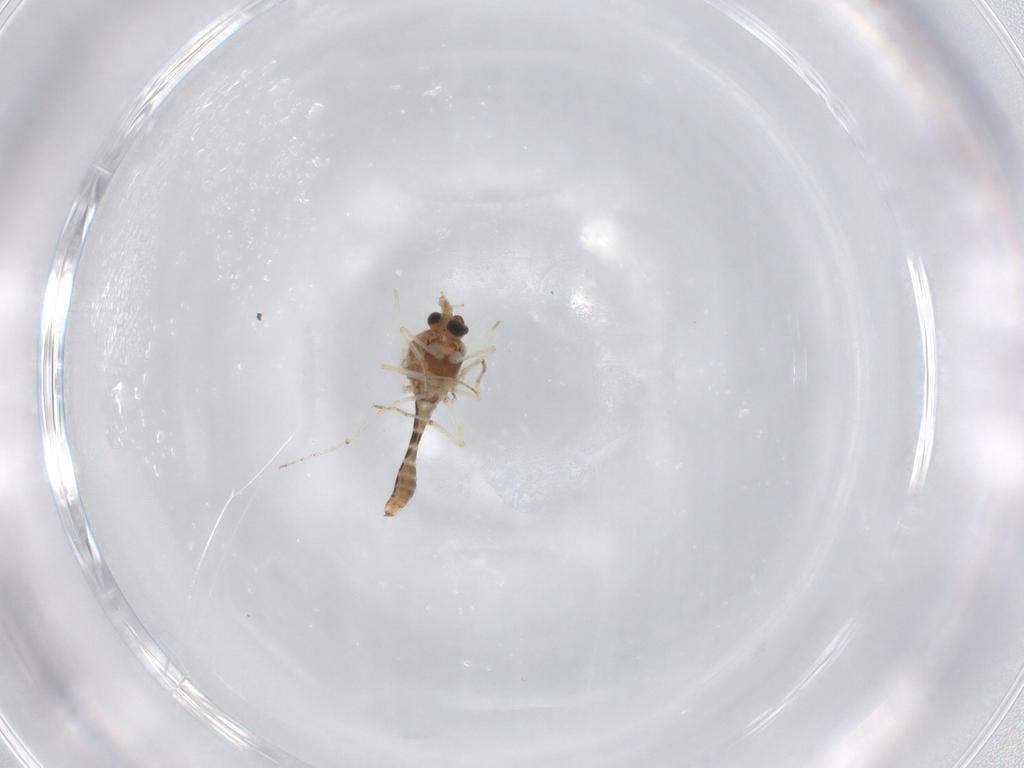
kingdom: Animalia
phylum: Arthropoda
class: Insecta
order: Diptera
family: Ceratopogonidae
